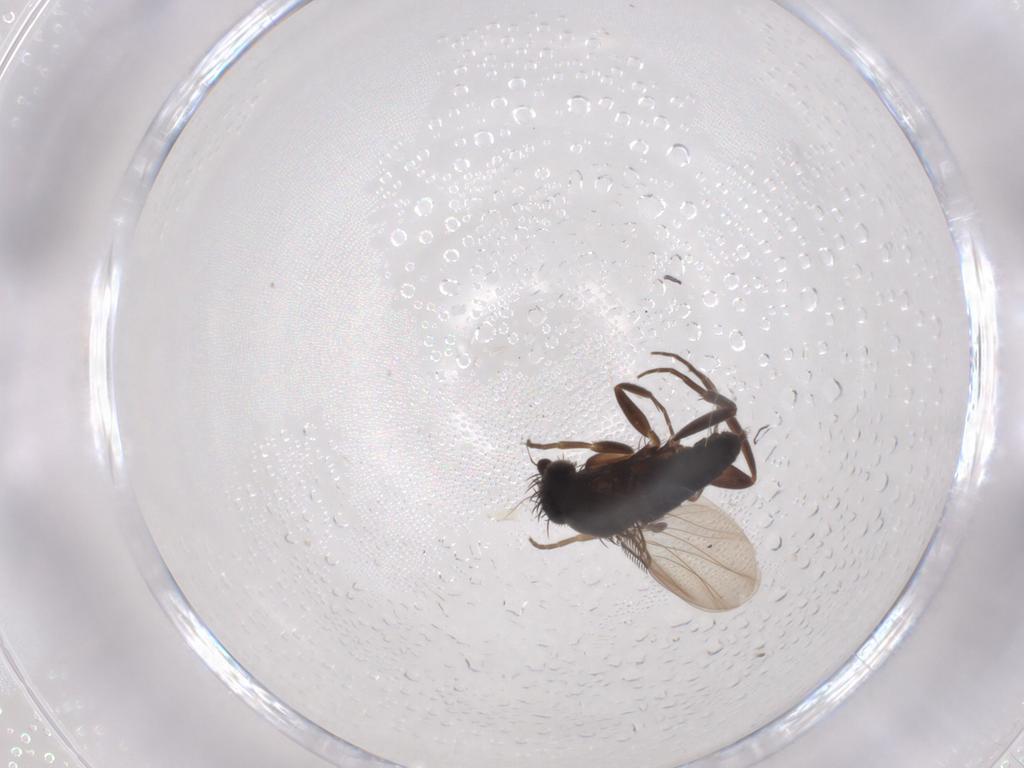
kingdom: Animalia
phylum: Arthropoda
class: Insecta
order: Diptera
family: Phoridae
